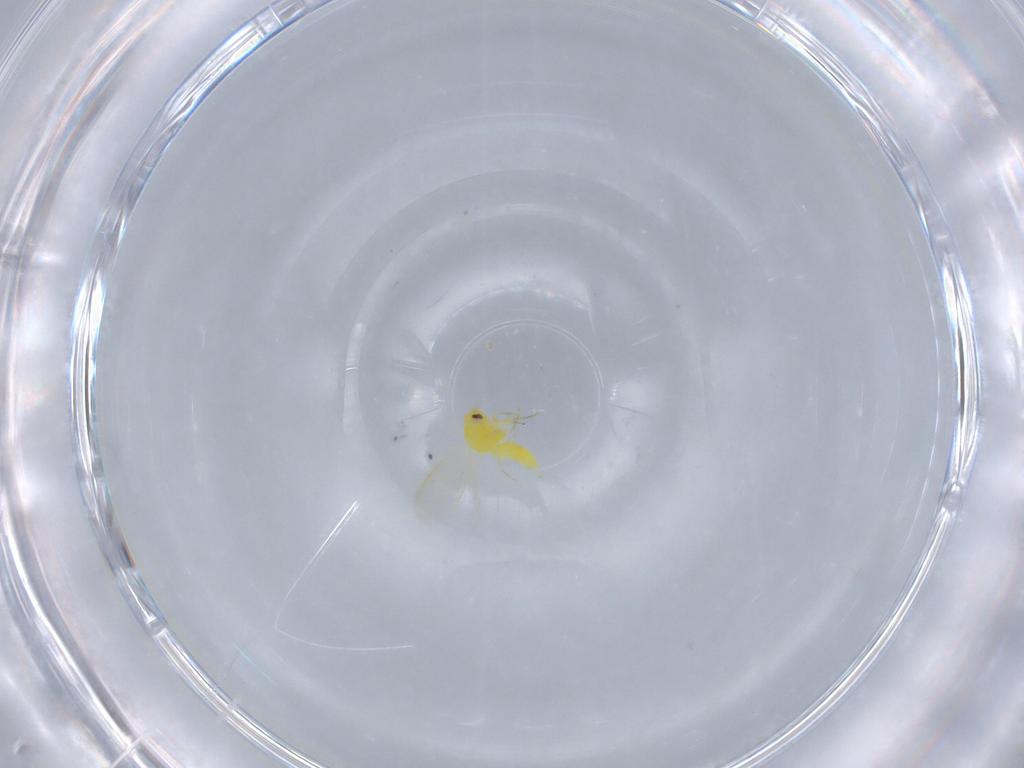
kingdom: Animalia
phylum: Arthropoda
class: Insecta
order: Hemiptera
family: Aleyrodidae
